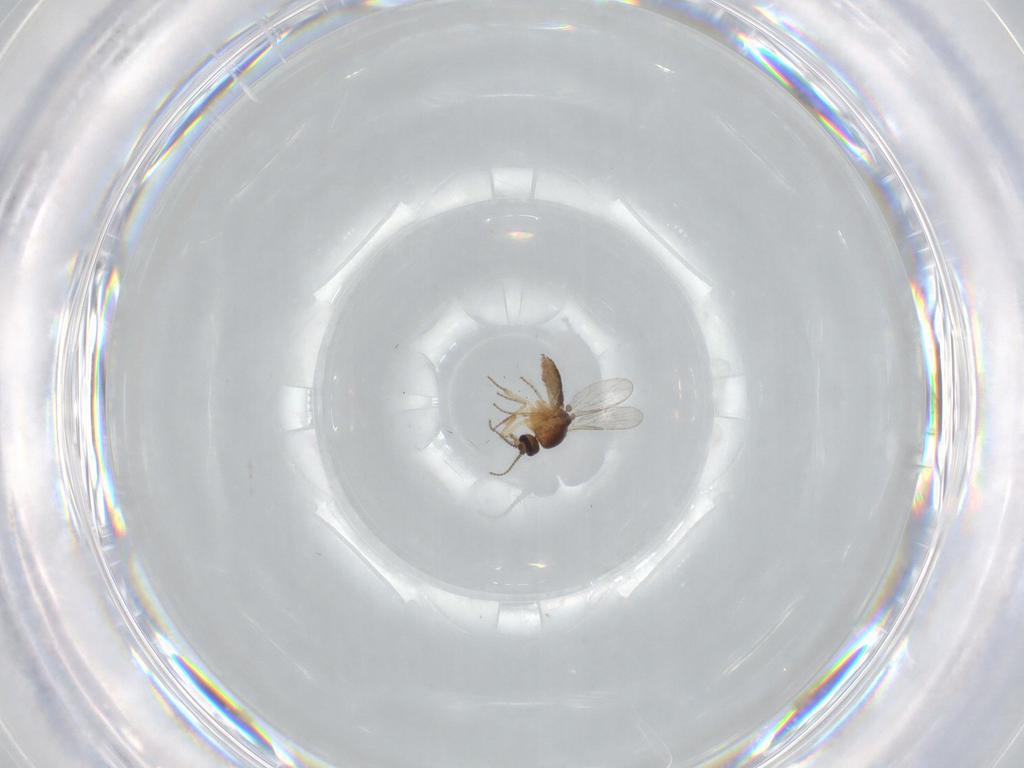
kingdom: Animalia
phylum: Arthropoda
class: Insecta
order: Diptera
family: Ceratopogonidae
